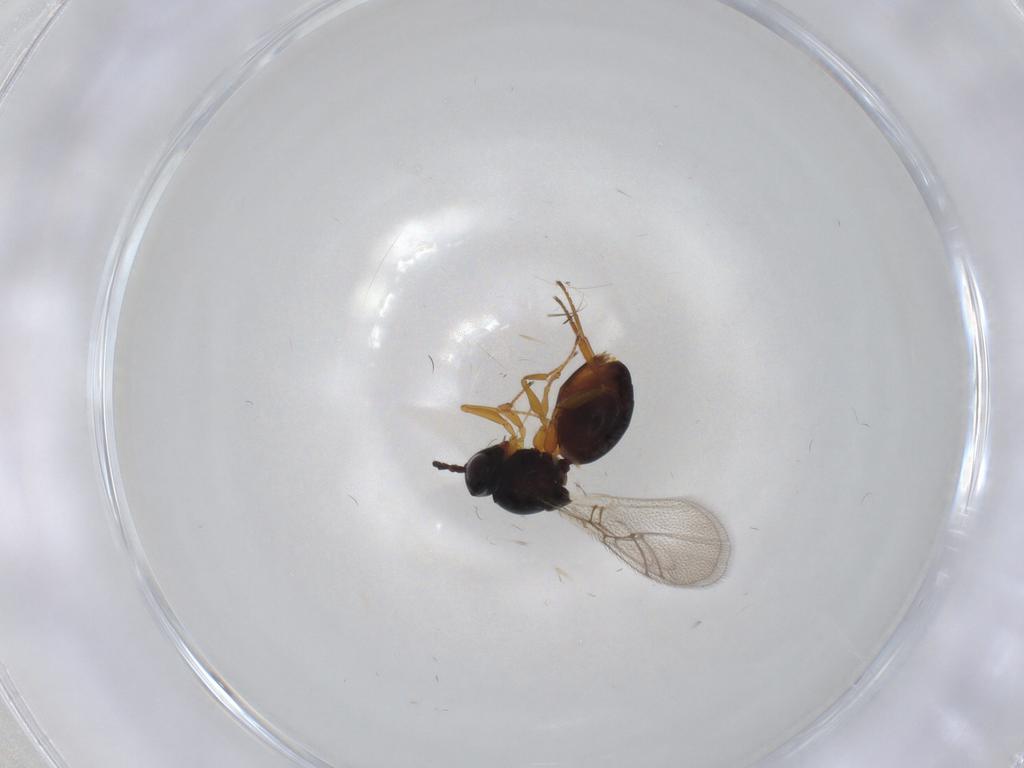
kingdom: Animalia
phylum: Arthropoda
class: Insecta
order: Hymenoptera
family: Figitidae
